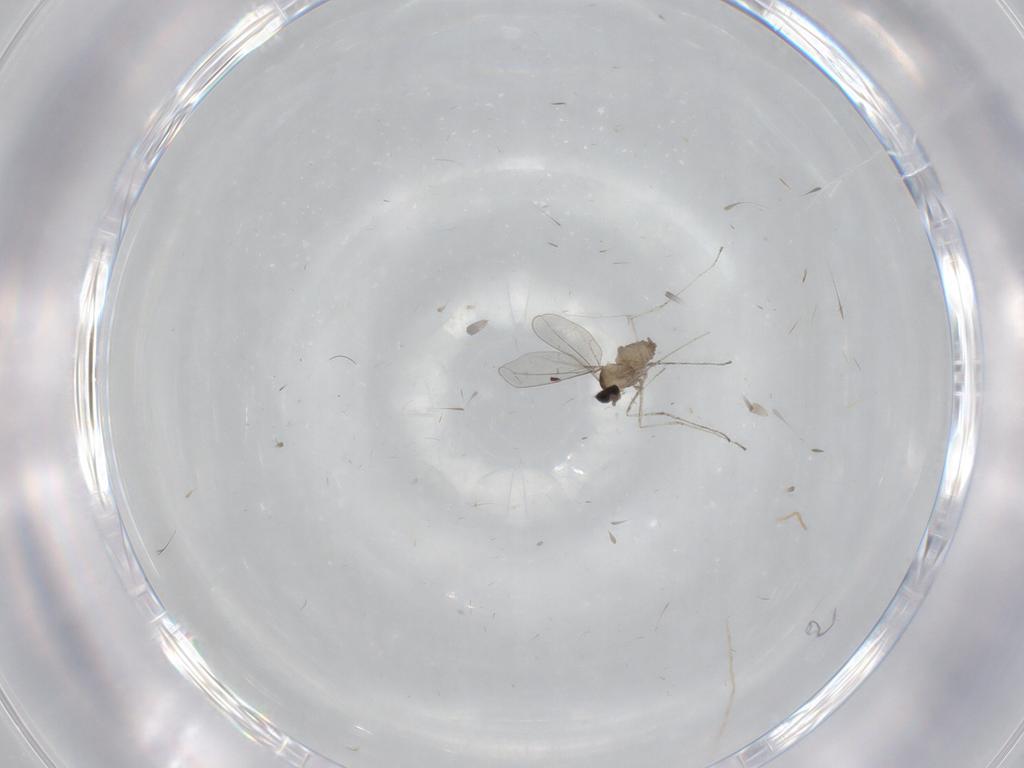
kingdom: Animalia
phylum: Arthropoda
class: Insecta
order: Diptera
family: Cecidomyiidae
